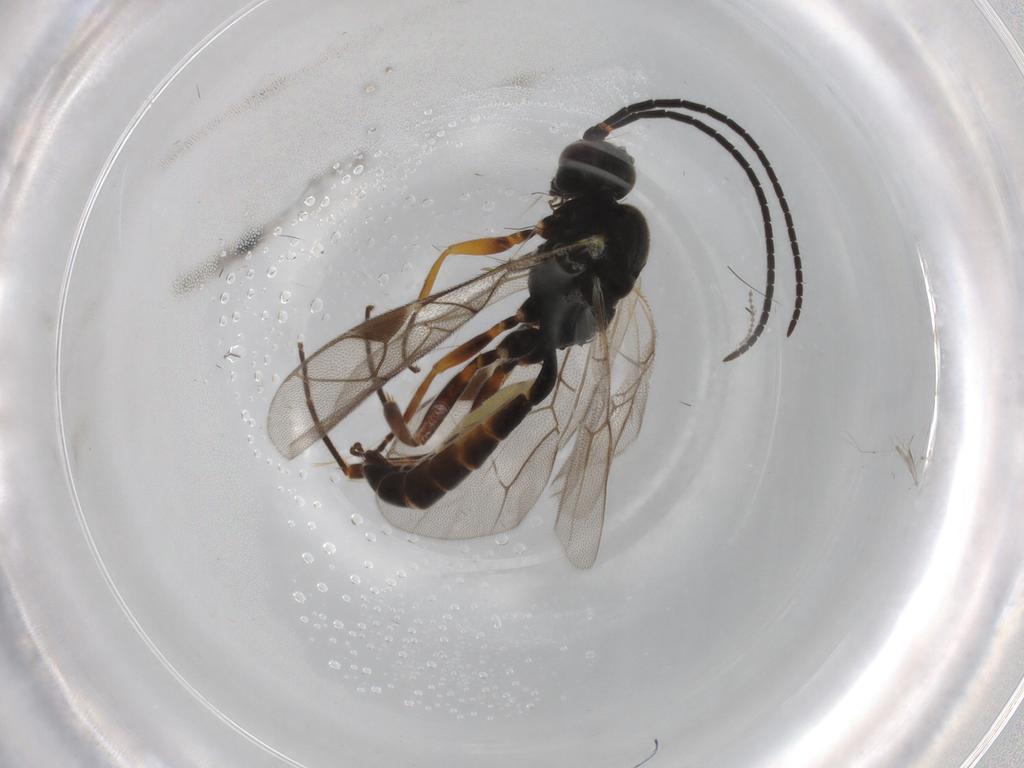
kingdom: Animalia
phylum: Arthropoda
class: Insecta
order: Hymenoptera
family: Ichneumonidae
